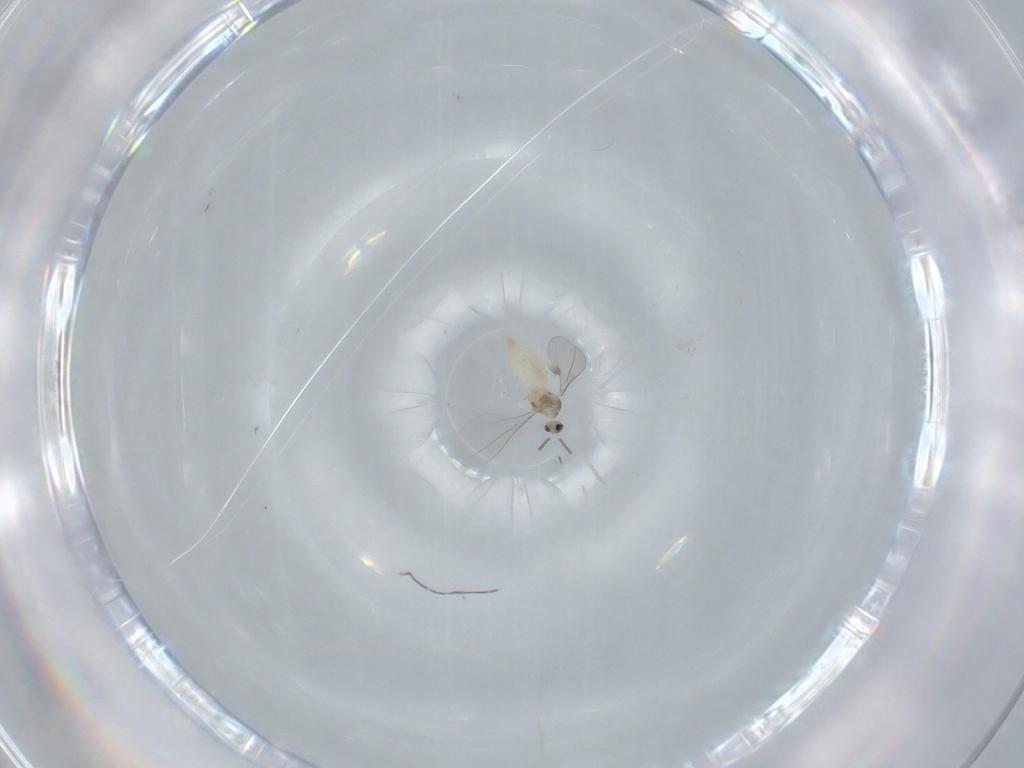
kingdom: Animalia
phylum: Arthropoda
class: Insecta
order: Diptera
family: Cecidomyiidae
